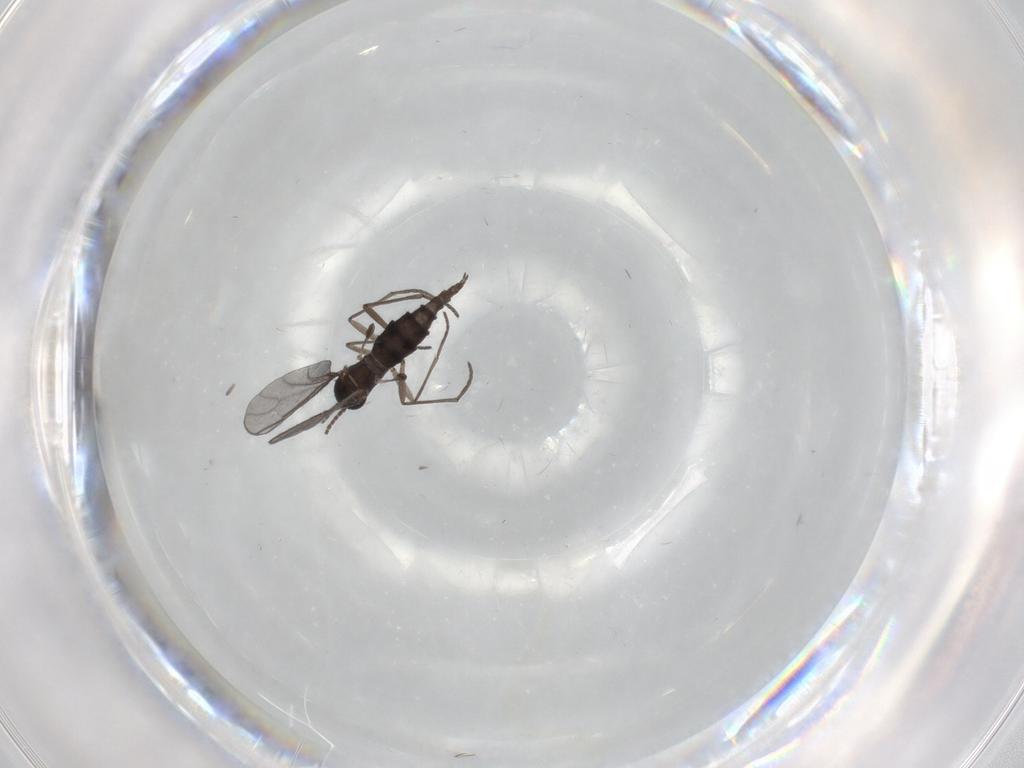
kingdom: Animalia
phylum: Arthropoda
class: Insecta
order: Diptera
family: Sciaridae
